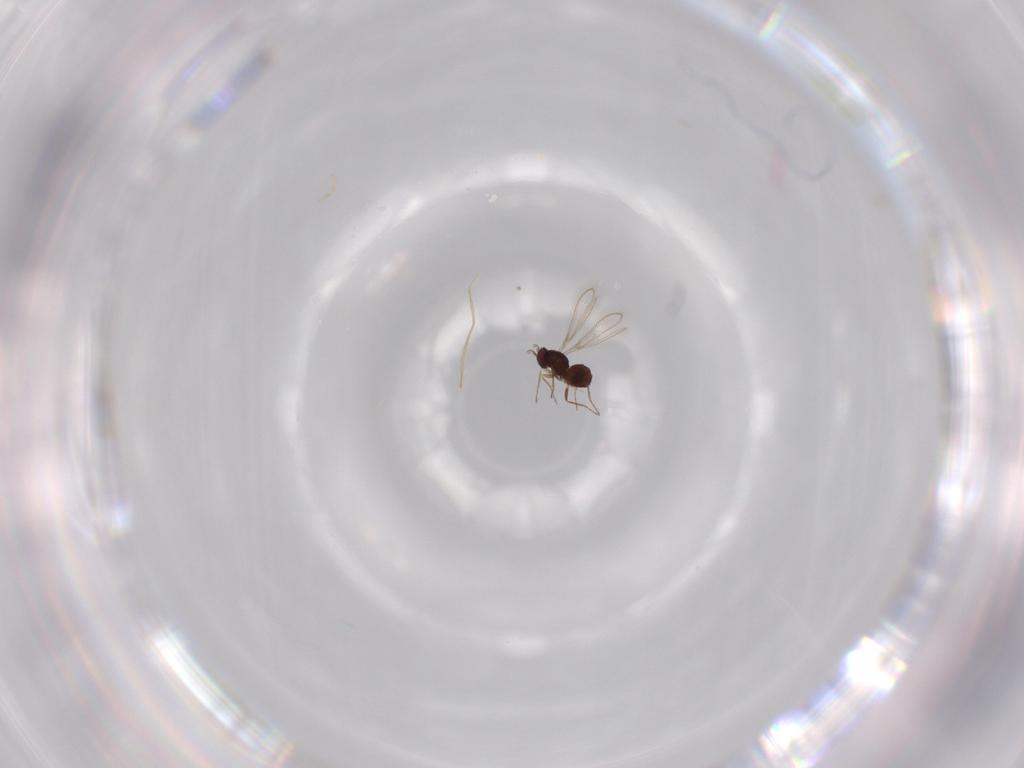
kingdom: Animalia
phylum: Arthropoda
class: Insecta
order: Hymenoptera
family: Mymaridae
